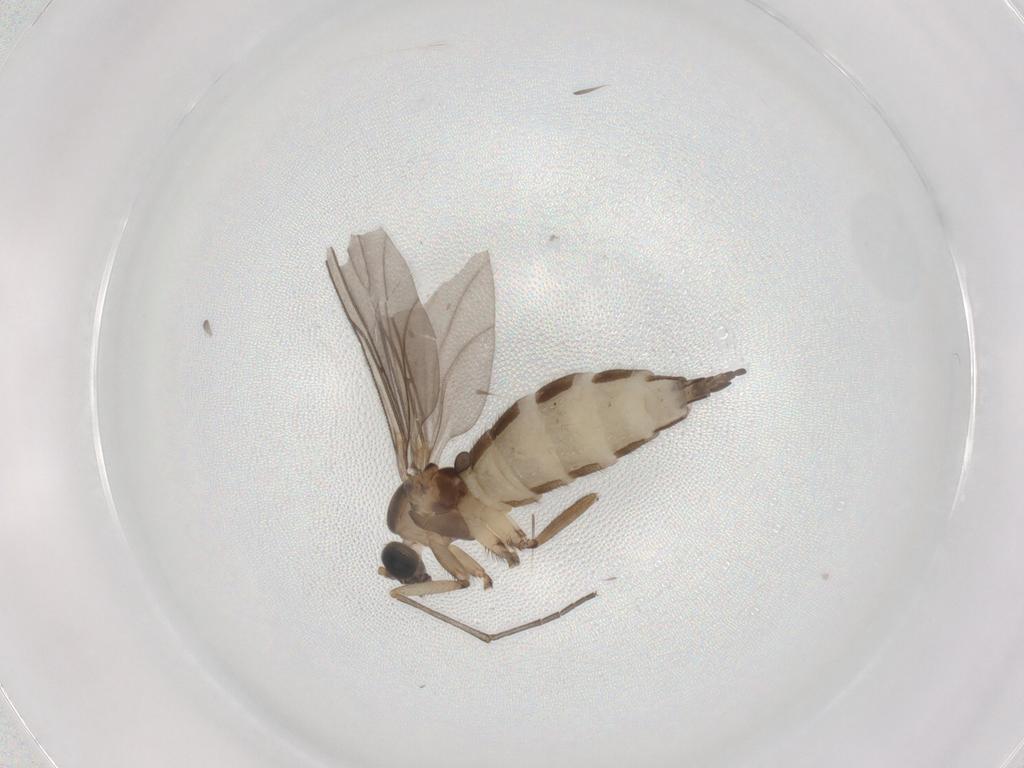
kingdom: Animalia
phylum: Arthropoda
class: Insecta
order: Diptera
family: Sciaridae
